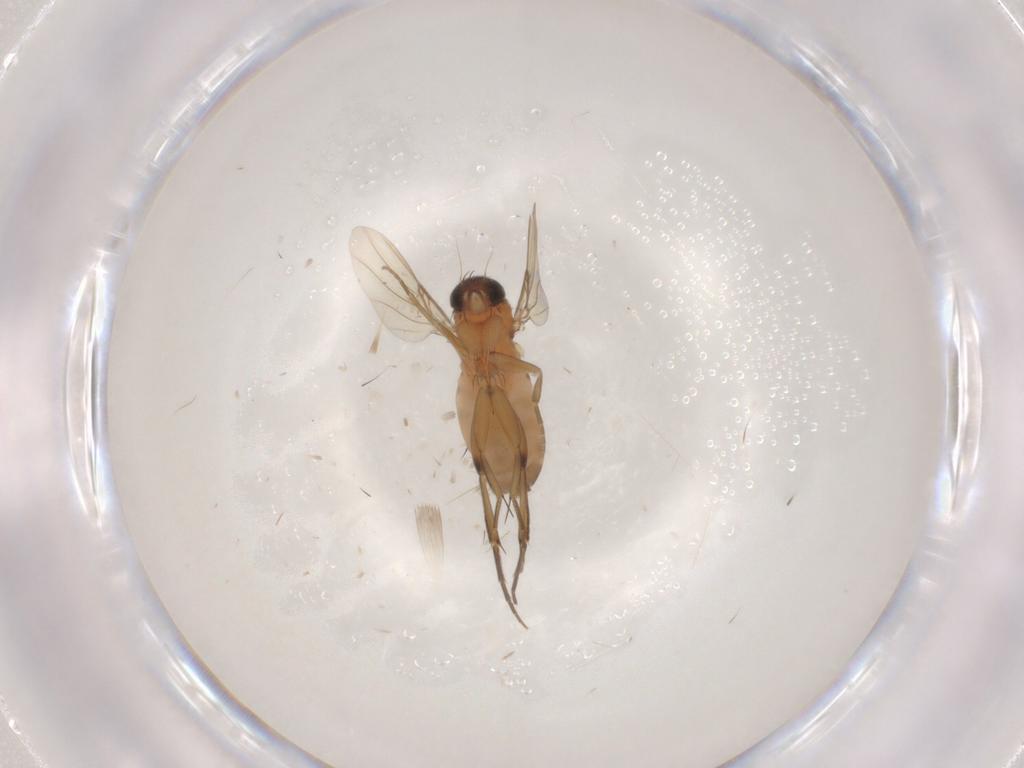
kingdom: Animalia
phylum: Arthropoda
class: Insecta
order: Diptera
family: Phoridae
